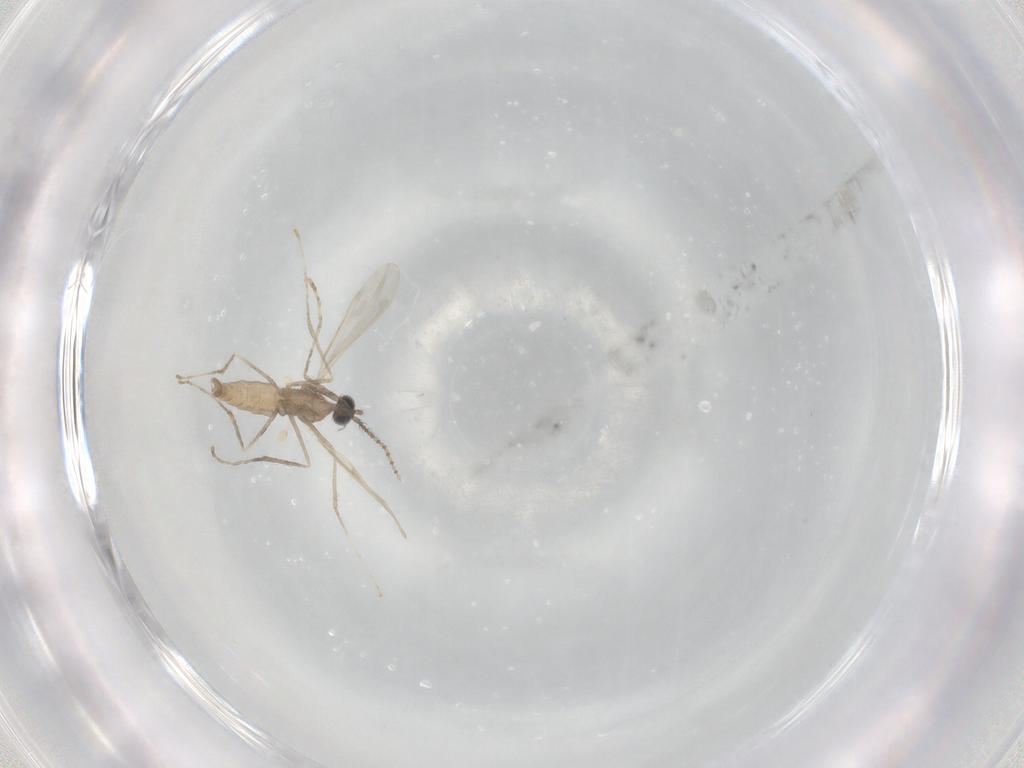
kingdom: Animalia
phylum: Arthropoda
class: Insecta
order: Diptera
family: Cecidomyiidae
